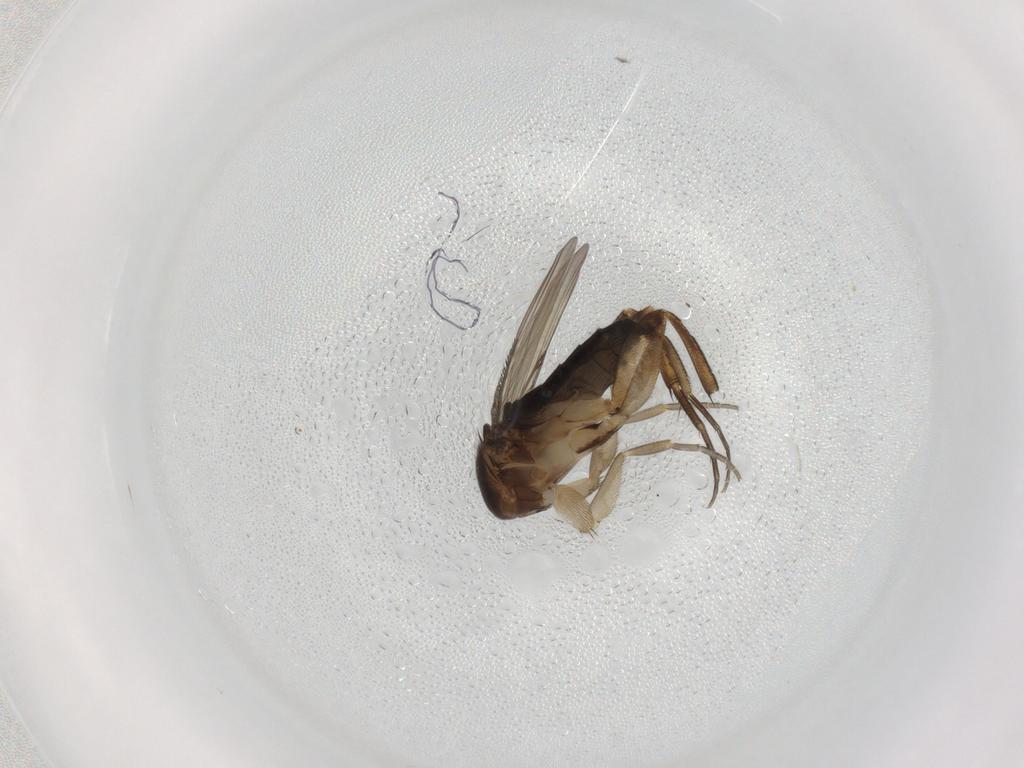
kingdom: Animalia
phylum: Arthropoda
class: Insecta
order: Diptera
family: Phoridae
